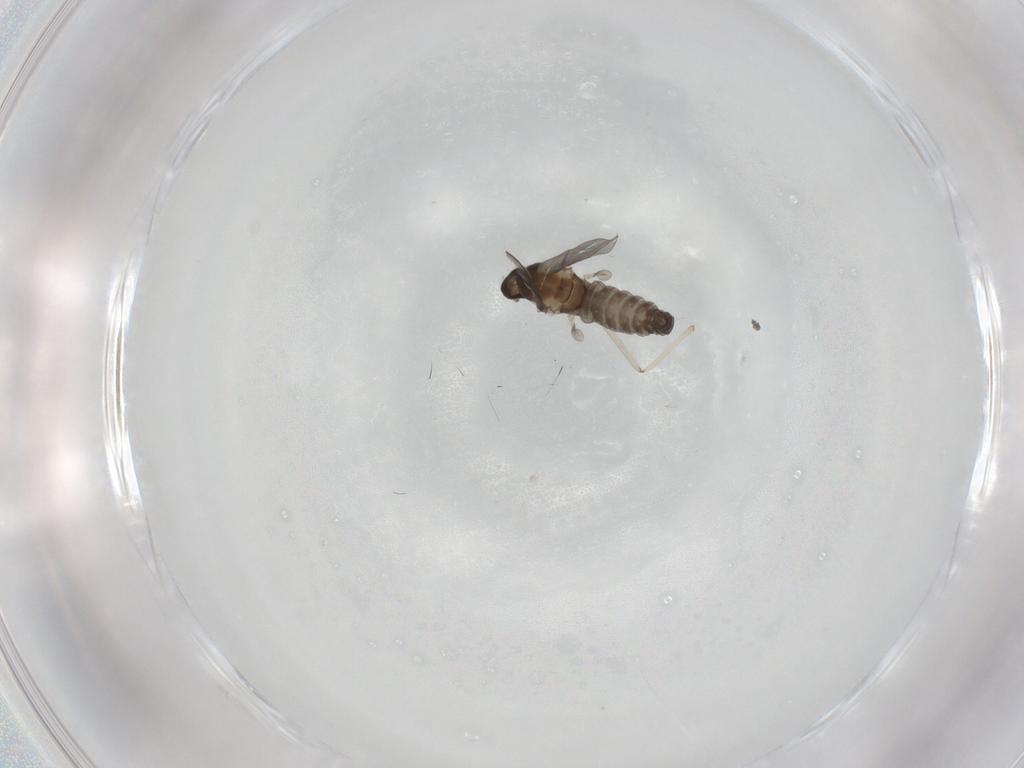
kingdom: Animalia
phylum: Arthropoda
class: Insecta
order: Diptera
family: Cecidomyiidae
